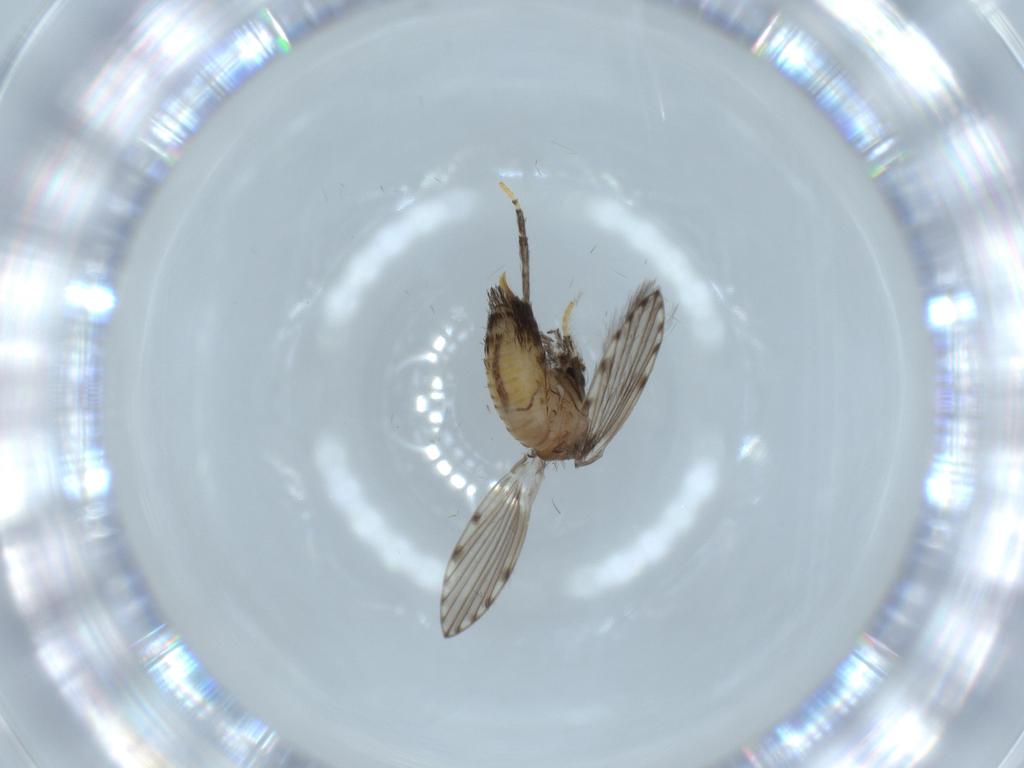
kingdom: Animalia
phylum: Arthropoda
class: Insecta
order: Diptera
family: Psychodidae
